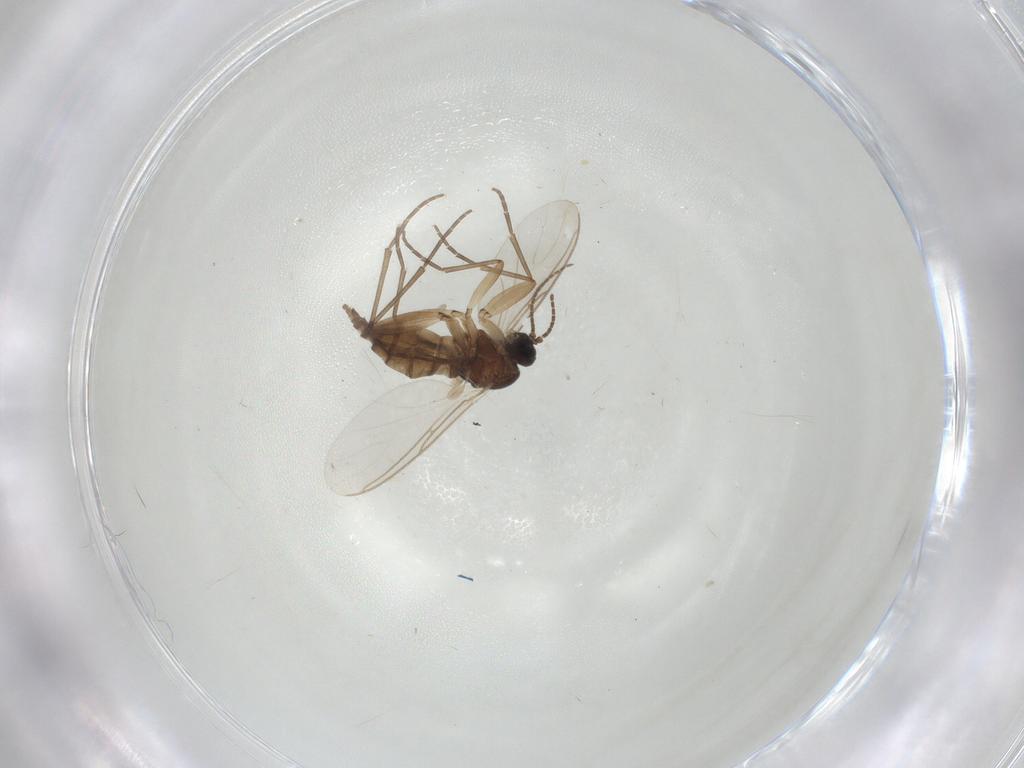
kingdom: Animalia
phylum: Arthropoda
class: Insecta
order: Diptera
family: Sciaridae
